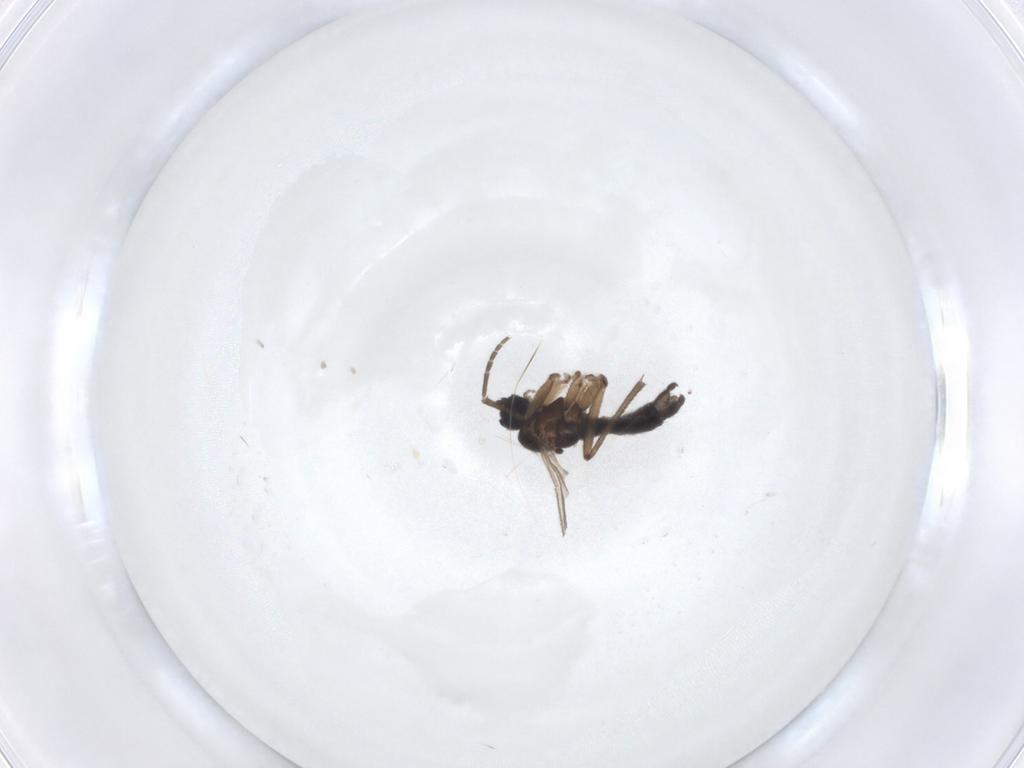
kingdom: Animalia
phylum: Arthropoda
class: Insecta
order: Diptera
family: Sciaridae
